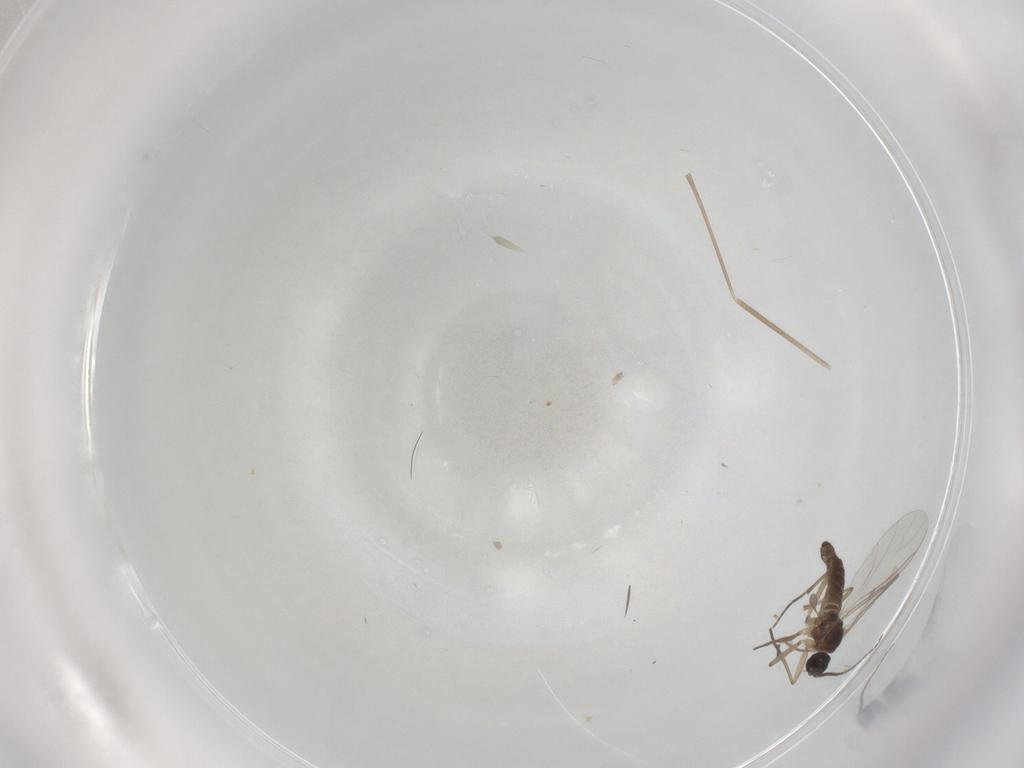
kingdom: Animalia
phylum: Arthropoda
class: Insecta
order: Diptera
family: Sciaridae
